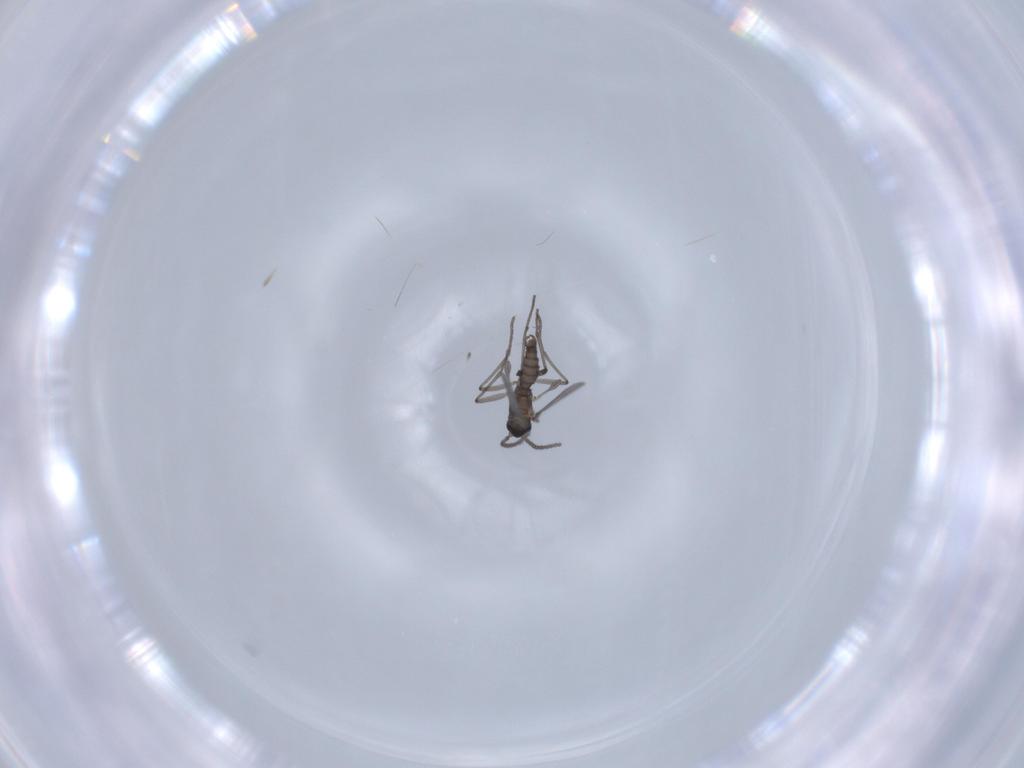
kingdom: Animalia
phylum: Arthropoda
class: Insecta
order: Diptera
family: Sciaridae
